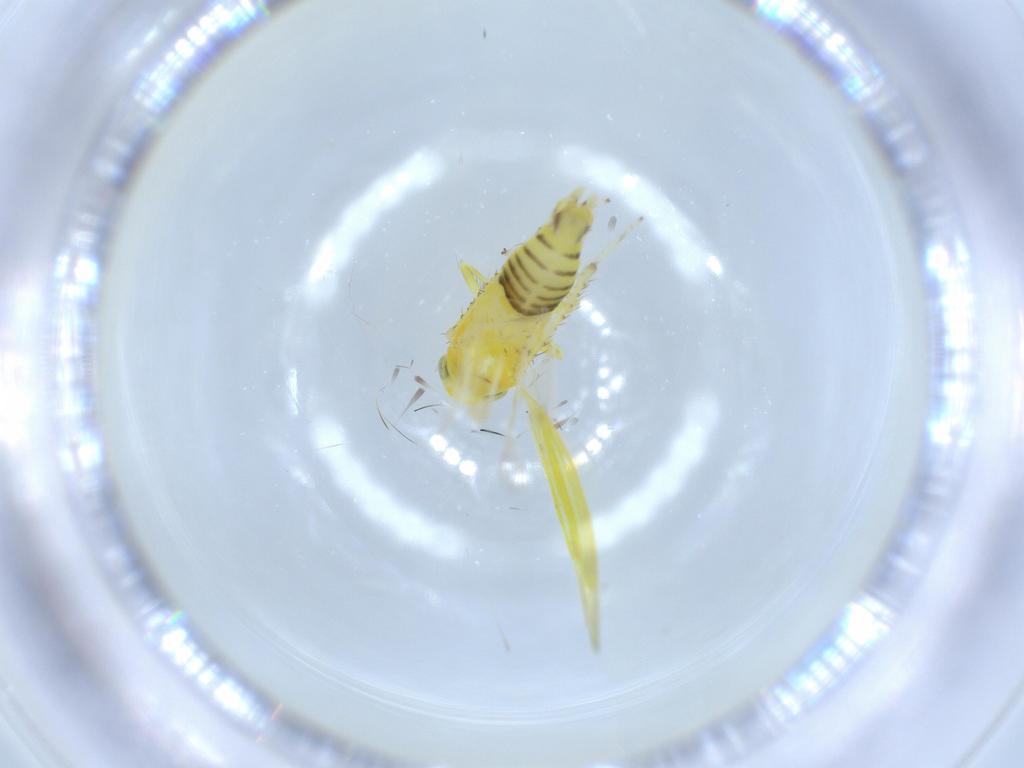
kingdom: Animalia
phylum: Arthropoda
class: Insecta
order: Hemiptera
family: Cicadellidae
